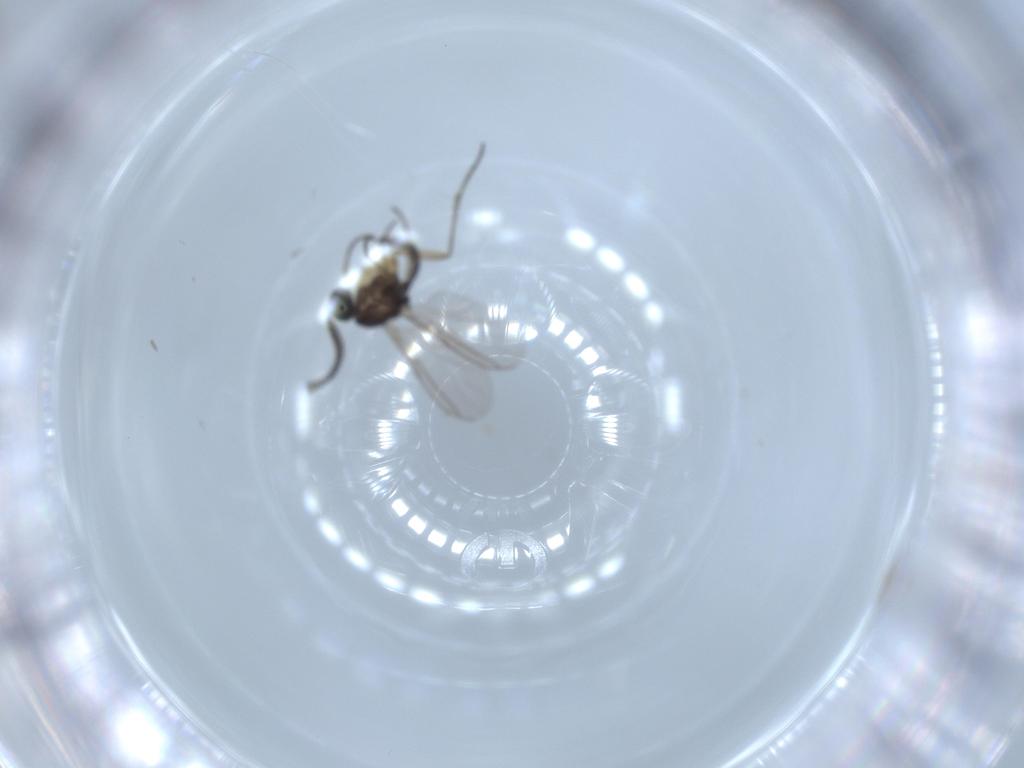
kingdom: Animalia
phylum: Arthropoda
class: Insecta
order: Diptera
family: Sciaridae
